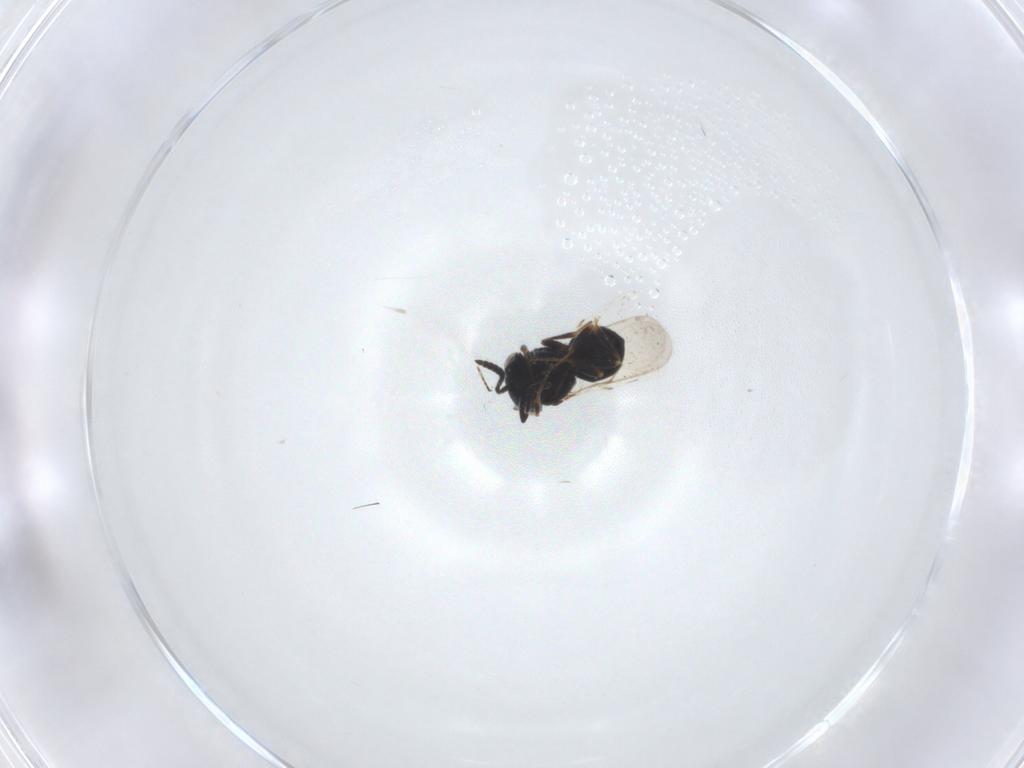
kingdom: Animalia
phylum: Arthropoda
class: Insecta
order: Hymenoptera
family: Scelionidae
